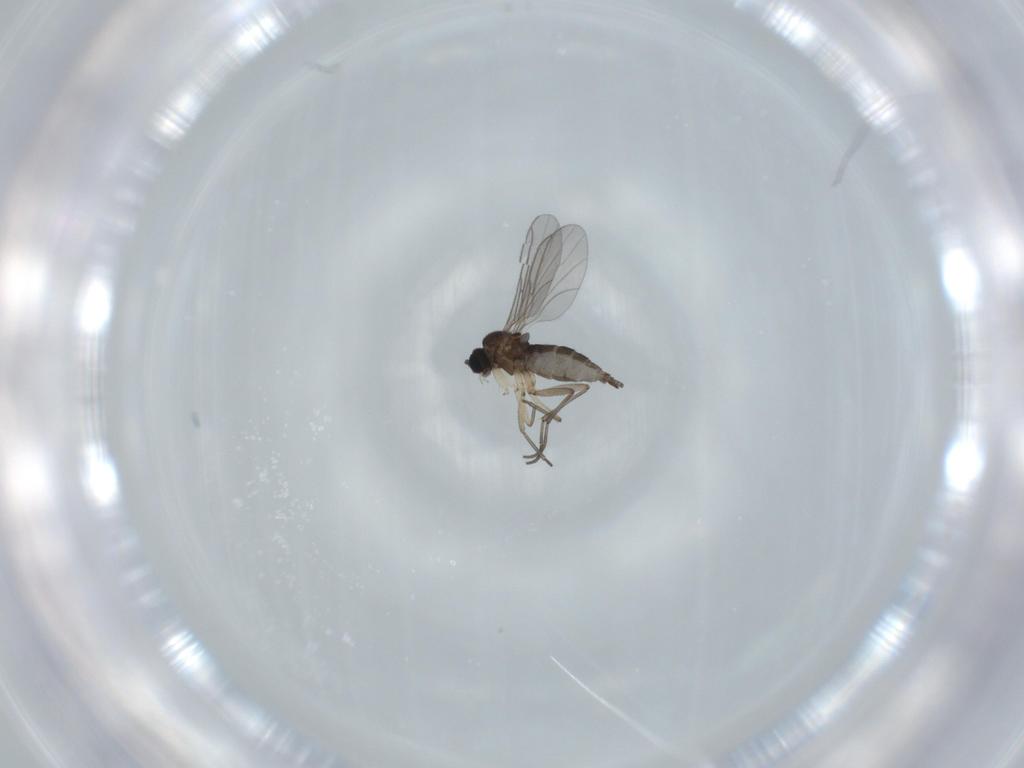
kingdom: Animalia
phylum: Arthropoda
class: Insecta
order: Diptera
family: Sciaridae
